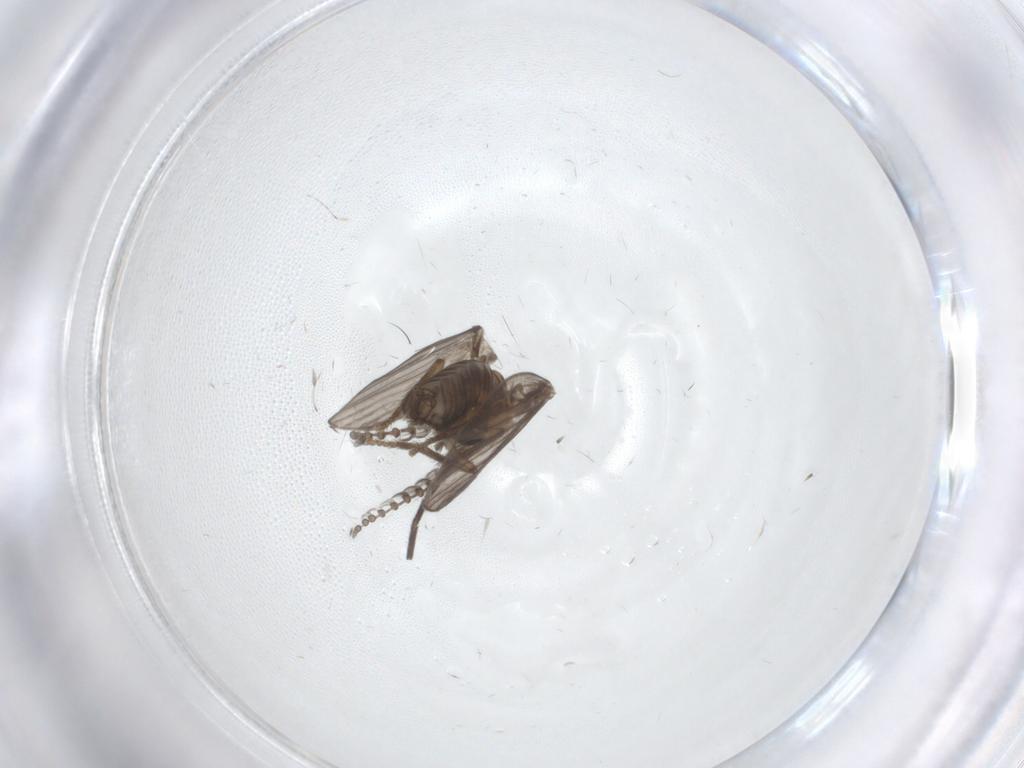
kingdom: Animalia
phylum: Arthropoda
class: Insecta
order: Diptera
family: Psychodidae
